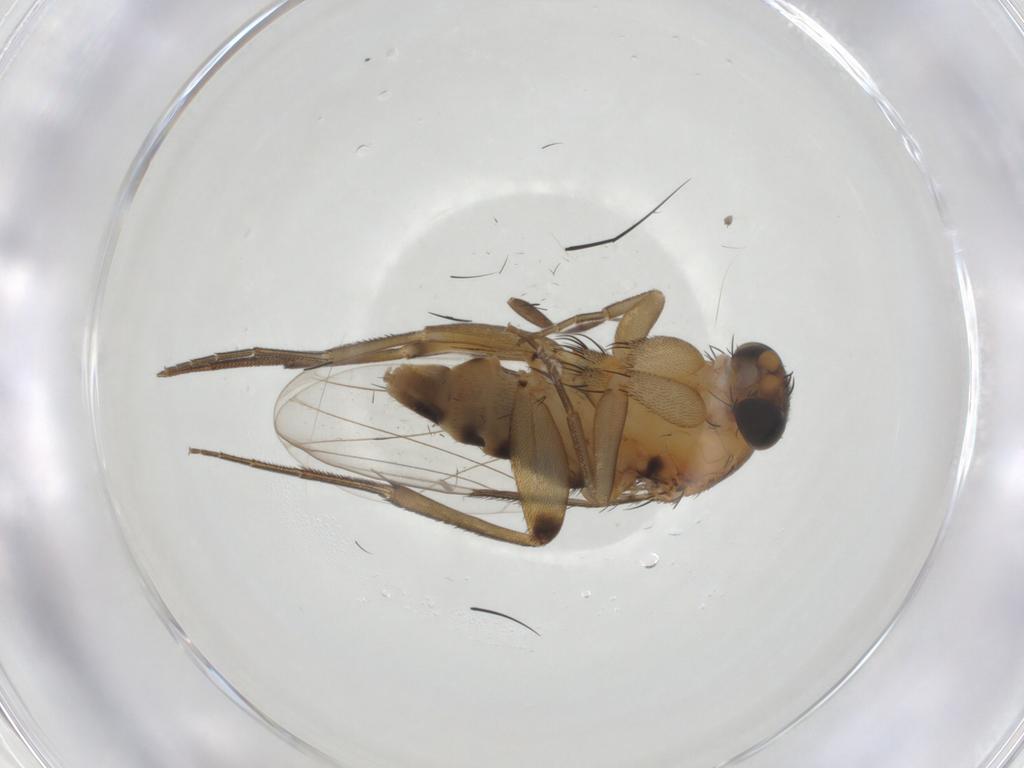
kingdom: Animalia
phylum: Arthropoda
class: Insecta
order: Diptera
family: Phoridae
